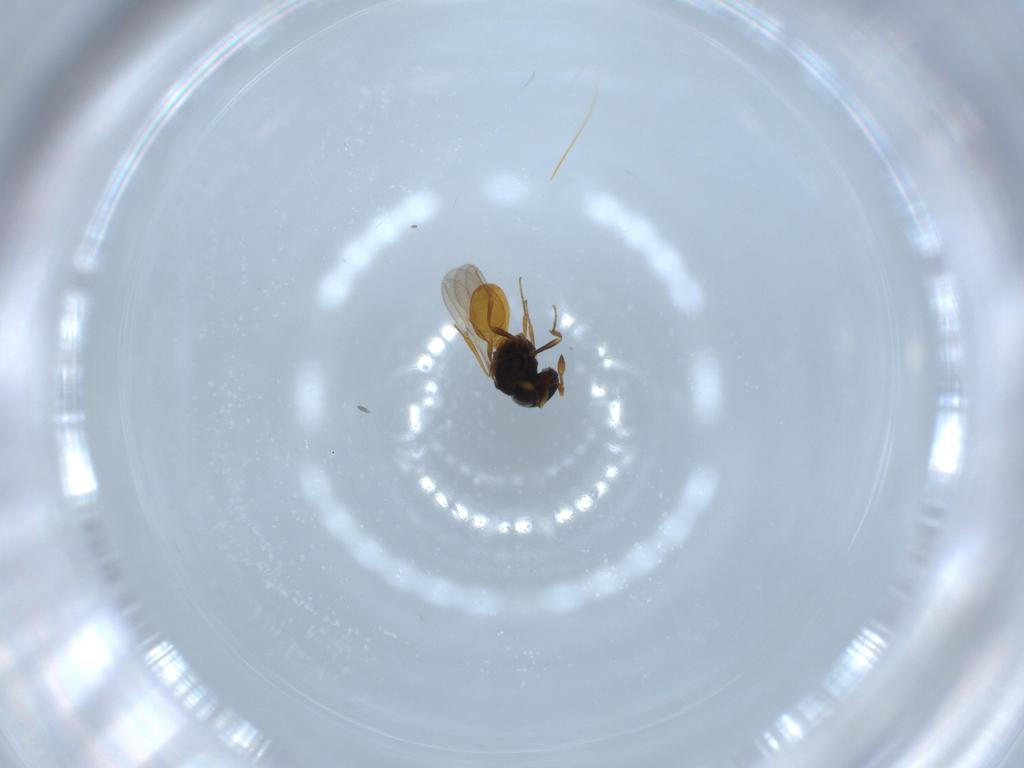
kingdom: Animalia
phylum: Arthropoda
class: Insecta
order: Hymenoptera
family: Scelionidae
